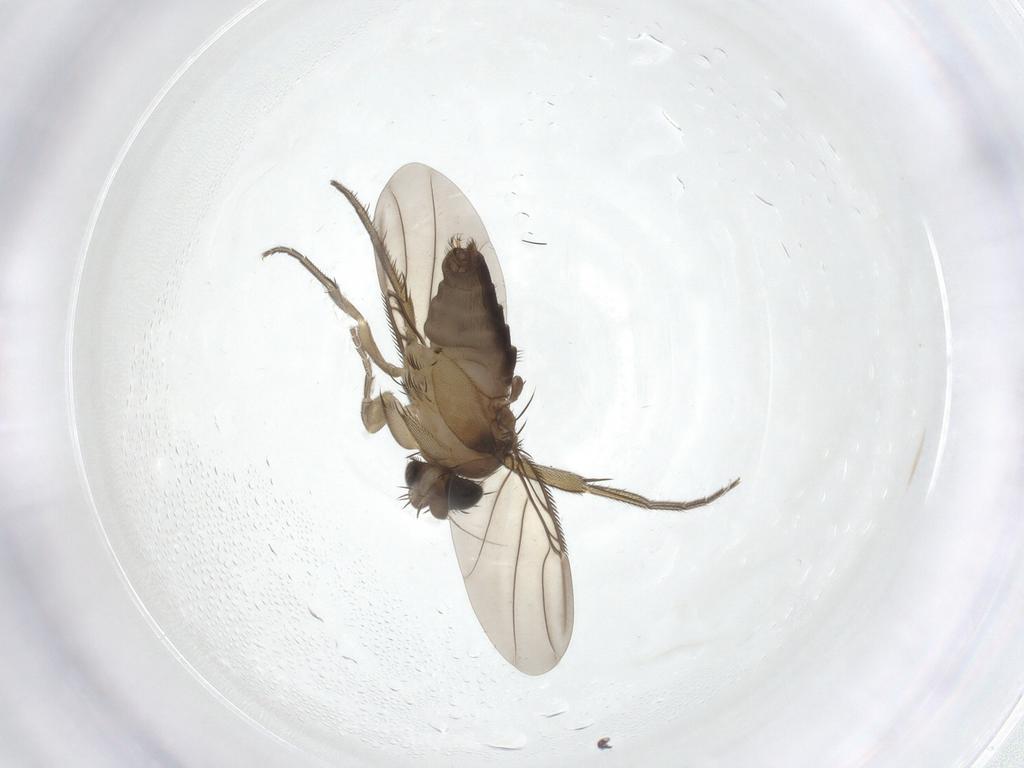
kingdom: Animalia
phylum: Arthropoda
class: Insecta
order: Diptera
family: Phoridae
